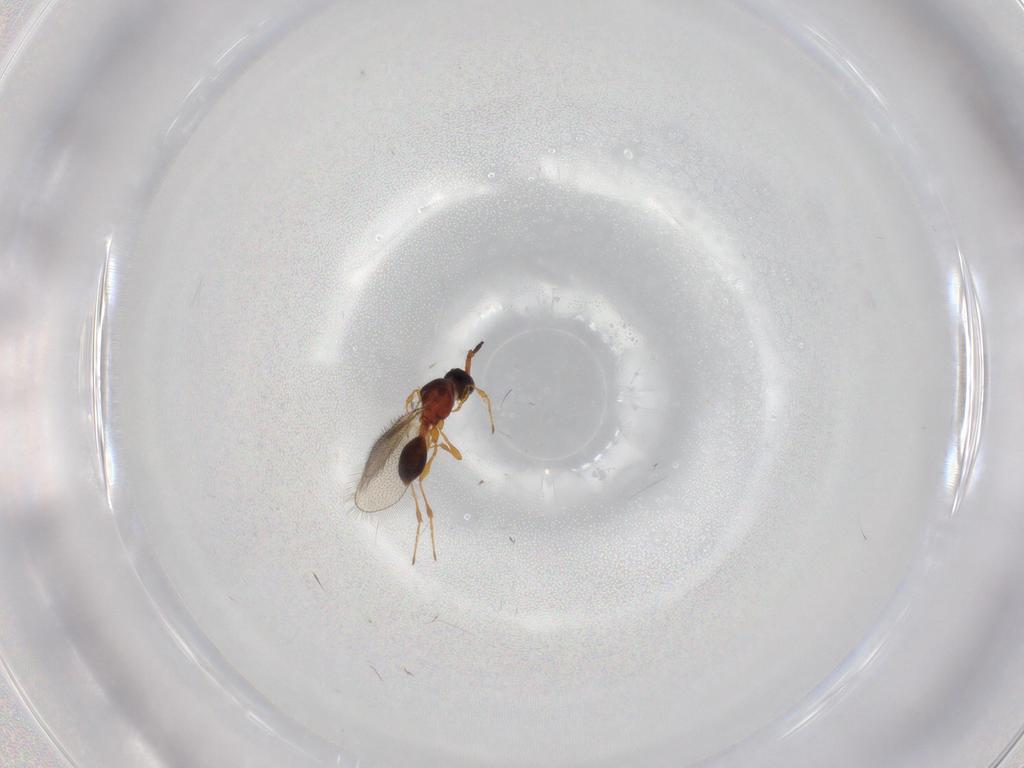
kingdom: Animalia
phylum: Arthropoda
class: Insecta
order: Hymenoptera
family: Diapriidae
